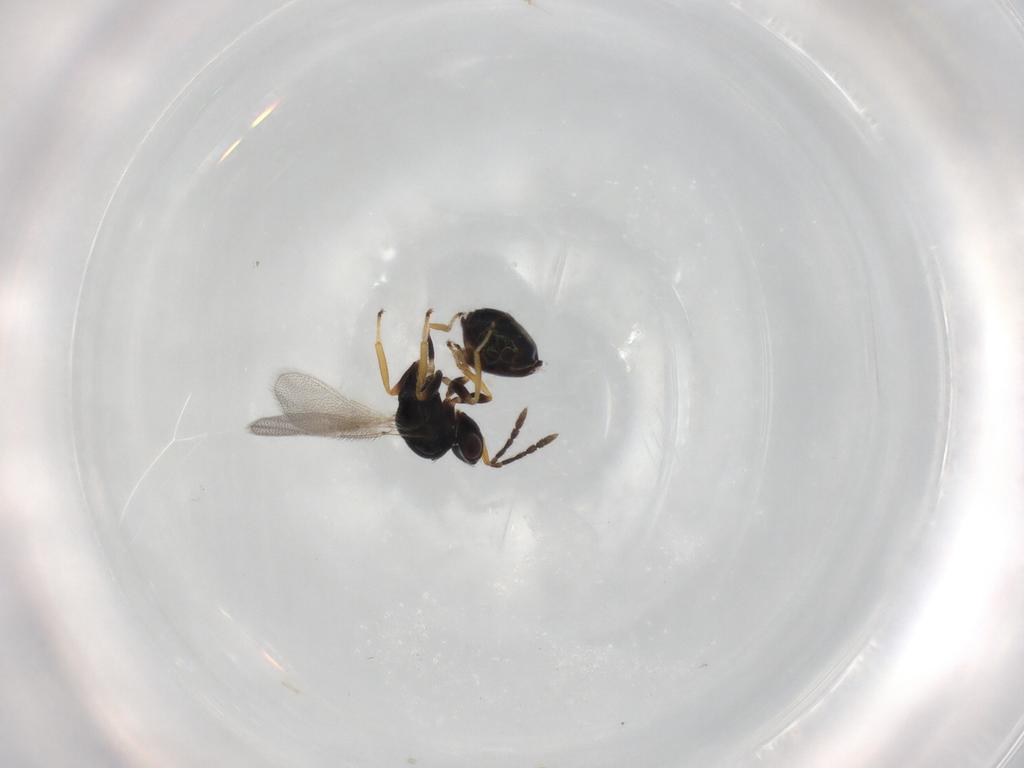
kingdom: Animalia
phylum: Arthropoda
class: Insecta
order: Hymenoptera
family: Eulophidae
